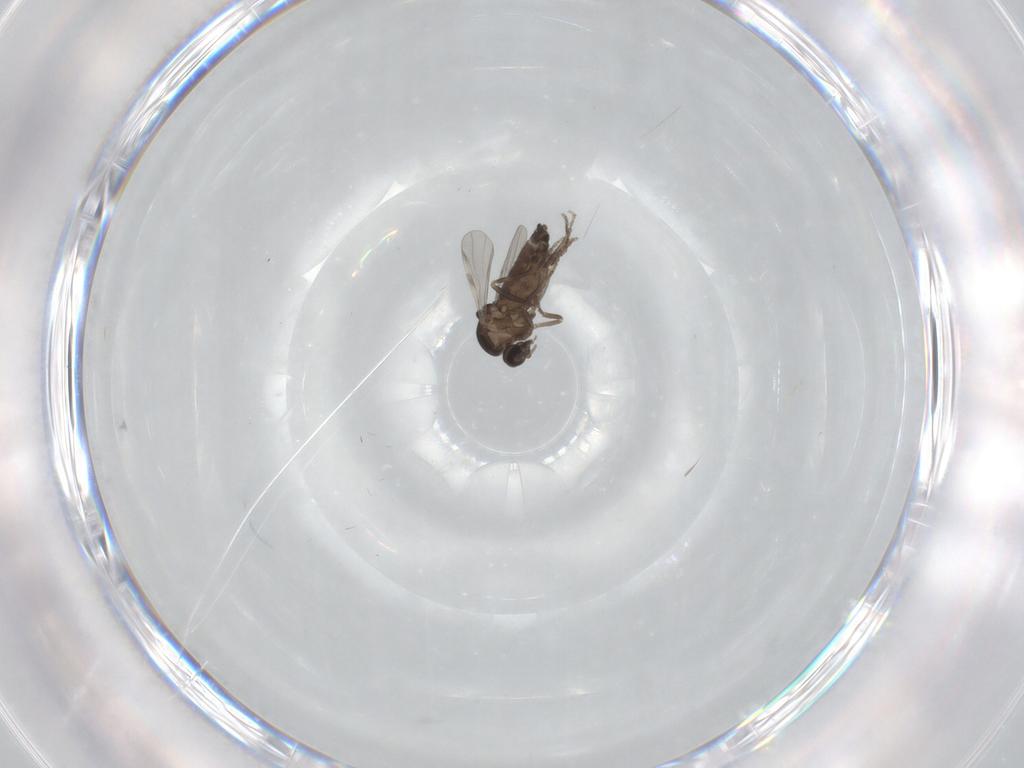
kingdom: Animalia
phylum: Arthropoda
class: Insecta
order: Diptera
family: Ceratopogonidae
